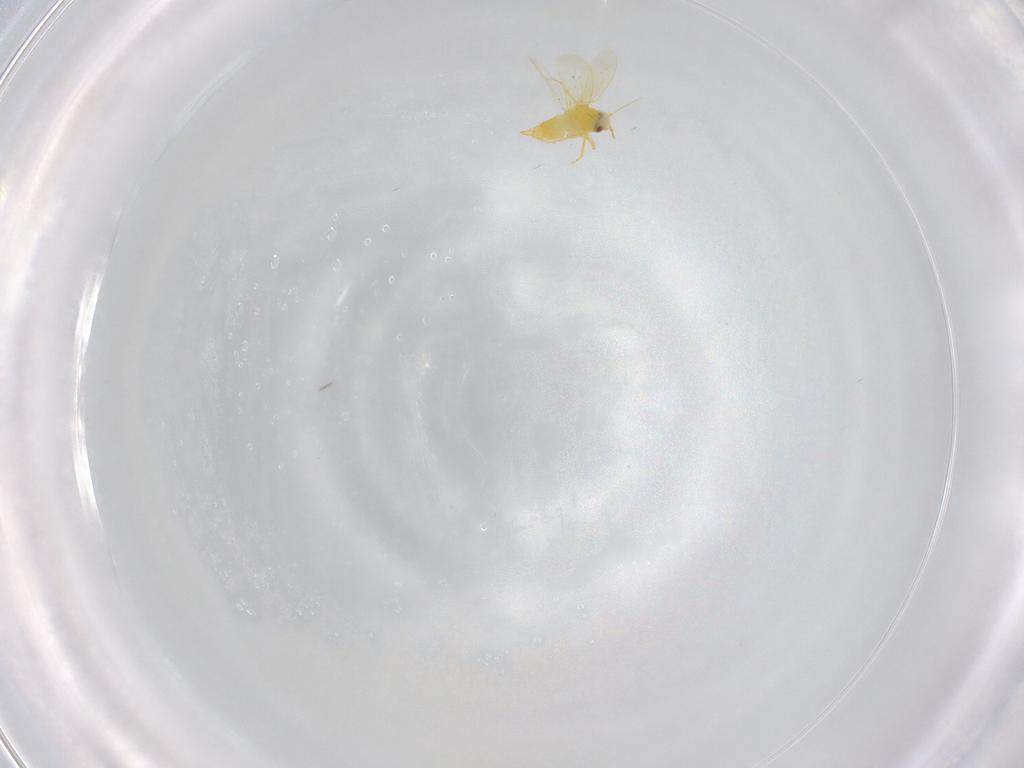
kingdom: Animalia
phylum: Arthropoda
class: Insecta
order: Hemiptera
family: Aleyrodidae
